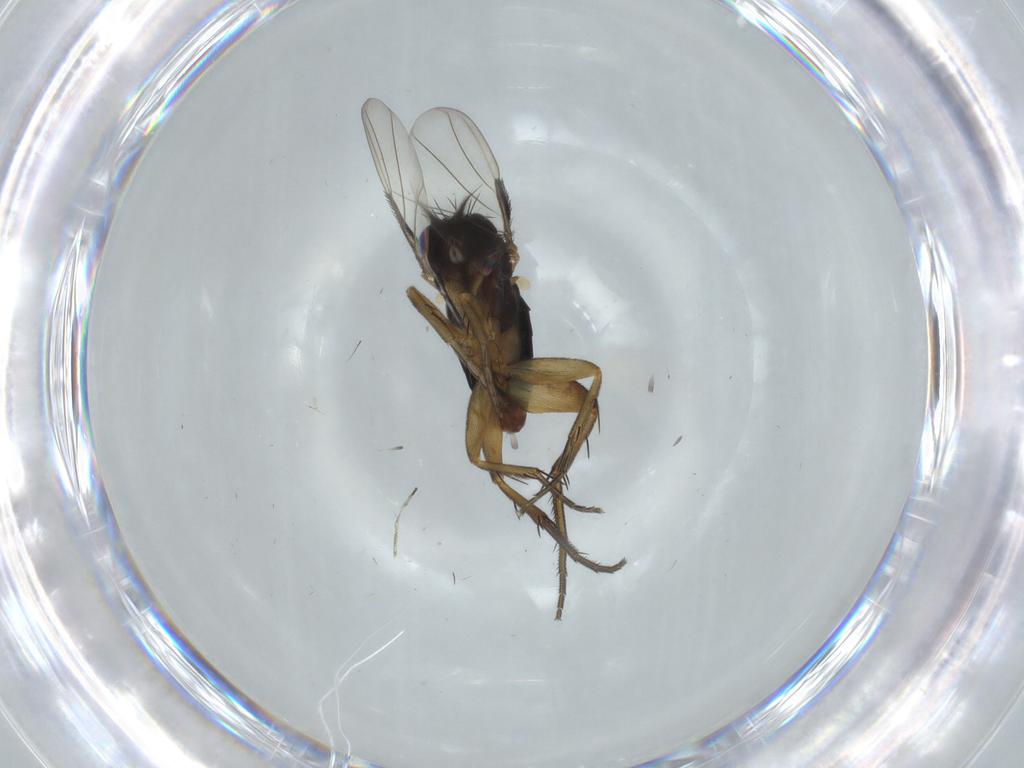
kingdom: Animalia
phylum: Arthropoda
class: Insecta
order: Diptera
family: Phoridae
